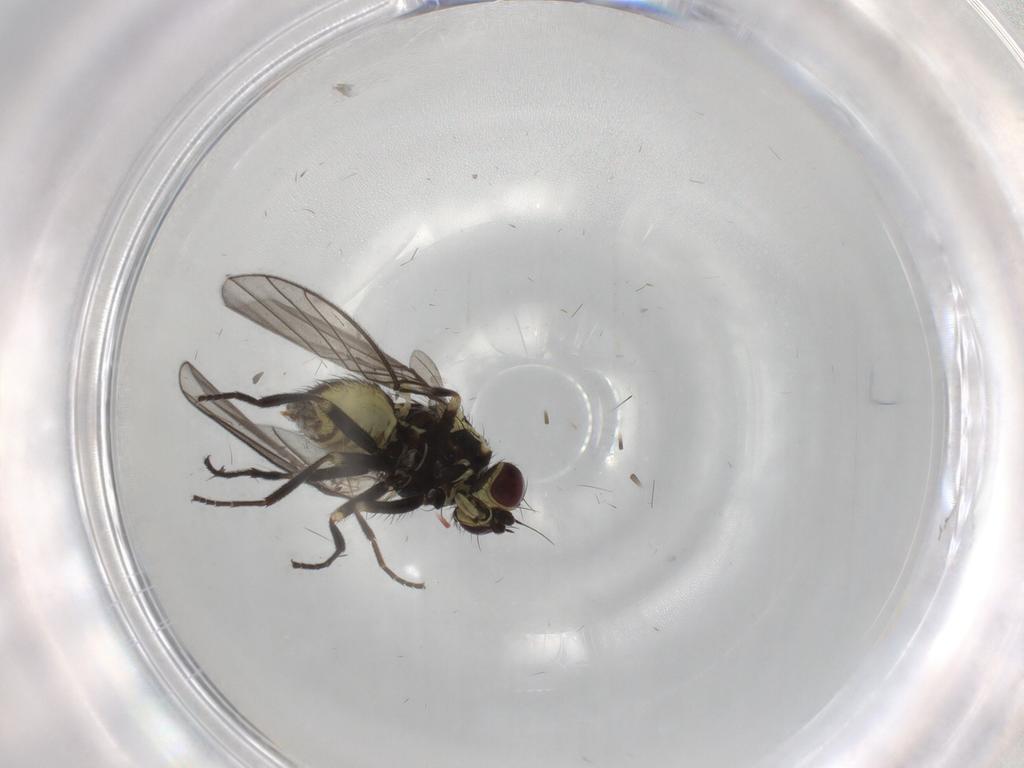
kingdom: Animalia
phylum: Arthropoda
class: Insecta
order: Diptera
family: Agromyzidae
